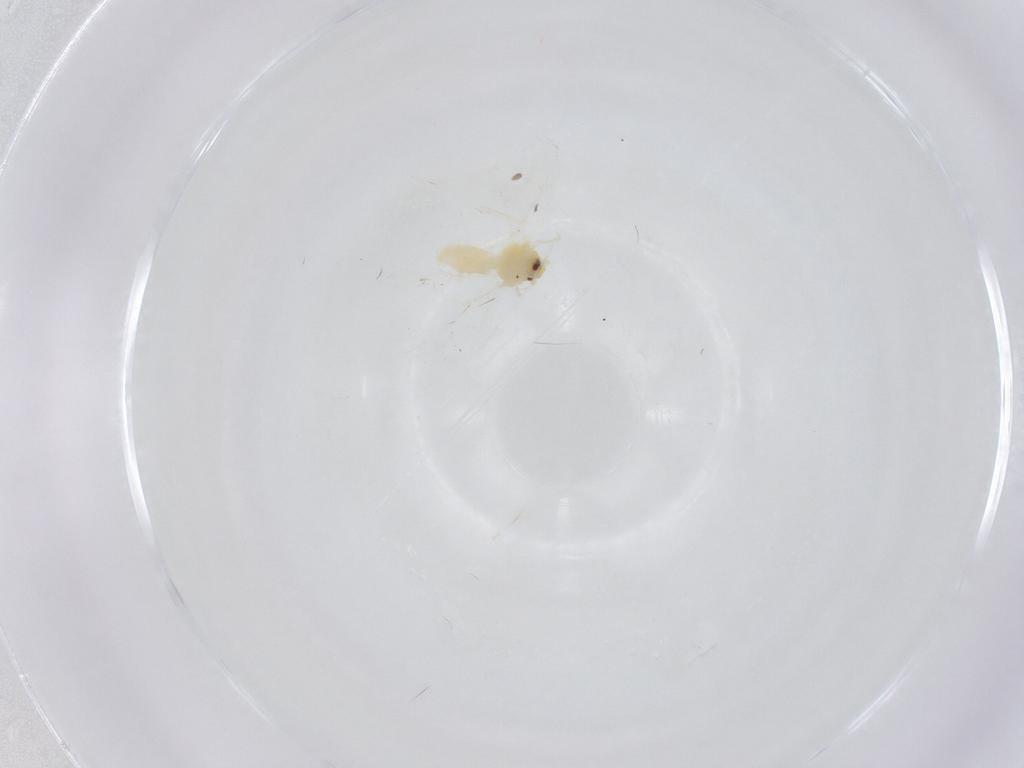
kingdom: Animalia
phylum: Arthropoda
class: Insecta
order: Hemiptera
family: Aleyrodidae
